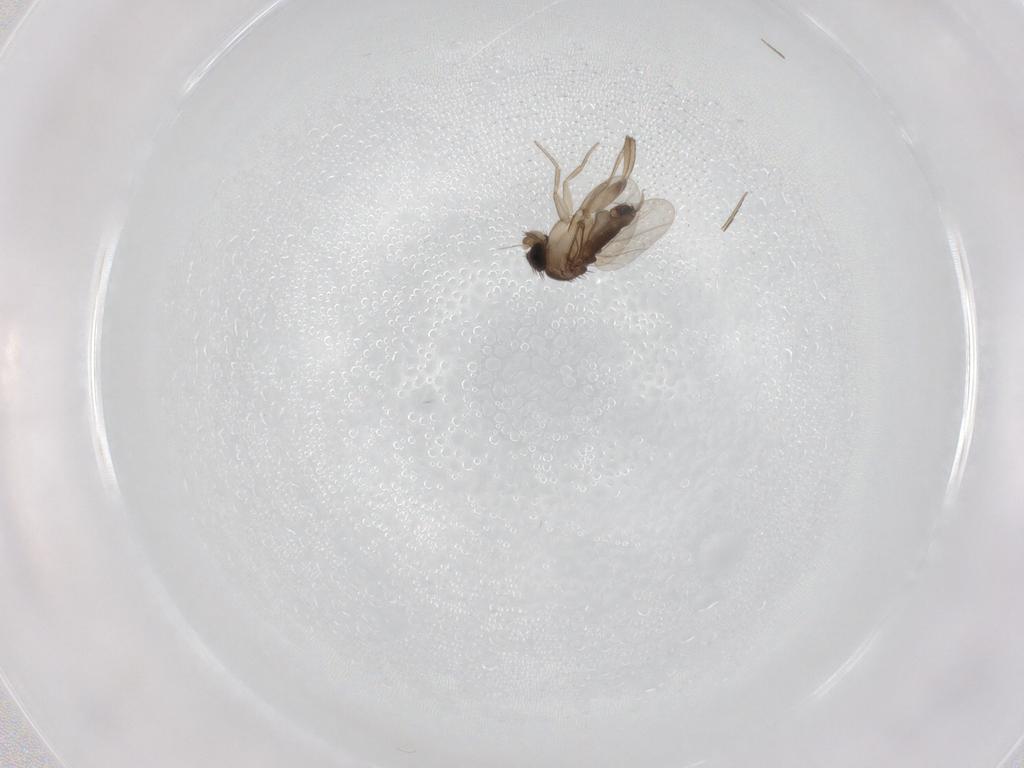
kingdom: Animalia
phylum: Arthropoda
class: Insecta
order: Diptera
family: Phoridae
